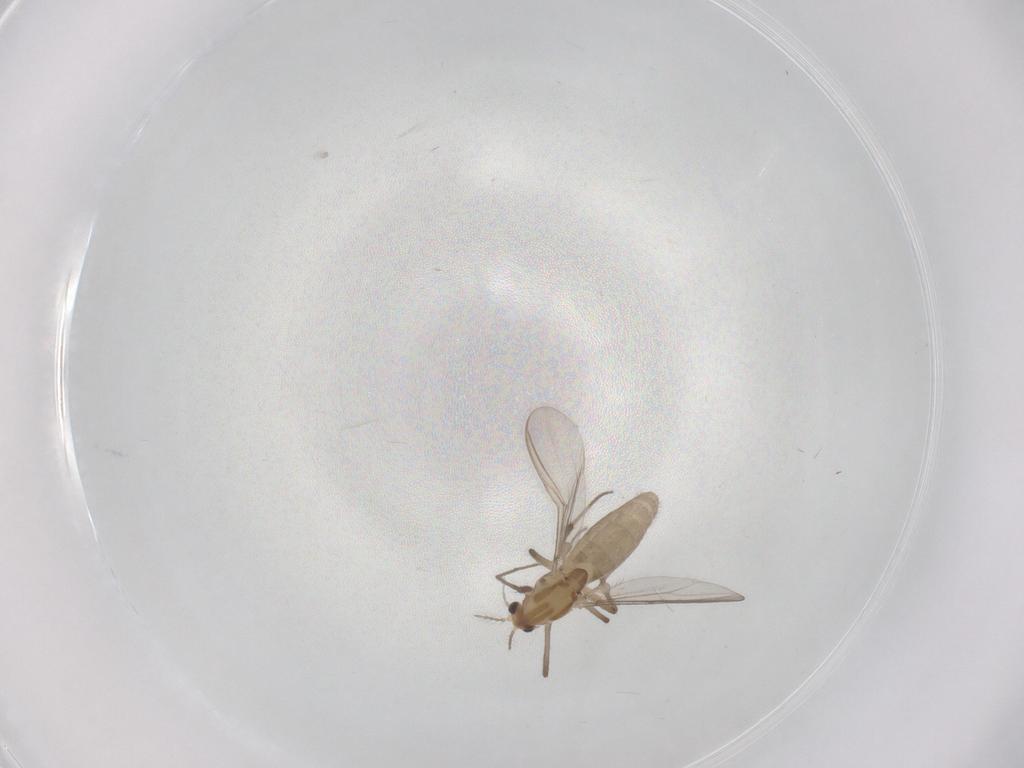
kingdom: Animalia
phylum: Arthropoda
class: Insecta
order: Diptera
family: Chironomidae
